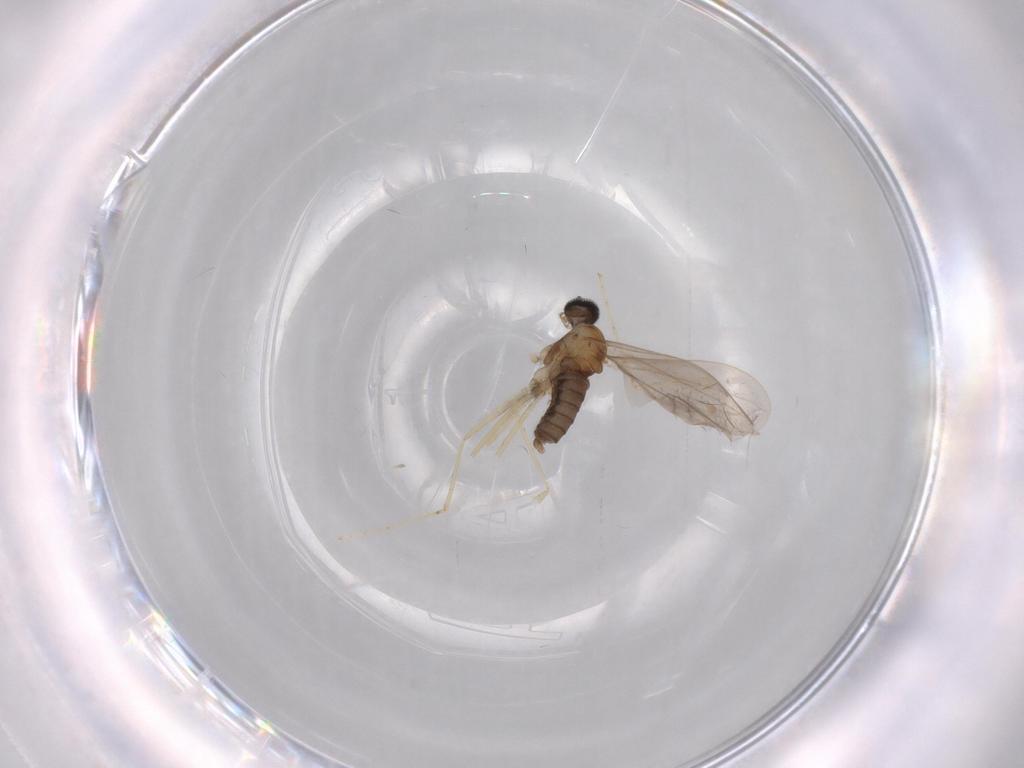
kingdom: Animalia
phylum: Arthropoda
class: Insecta
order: Diptera
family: Cecidomyiidae
